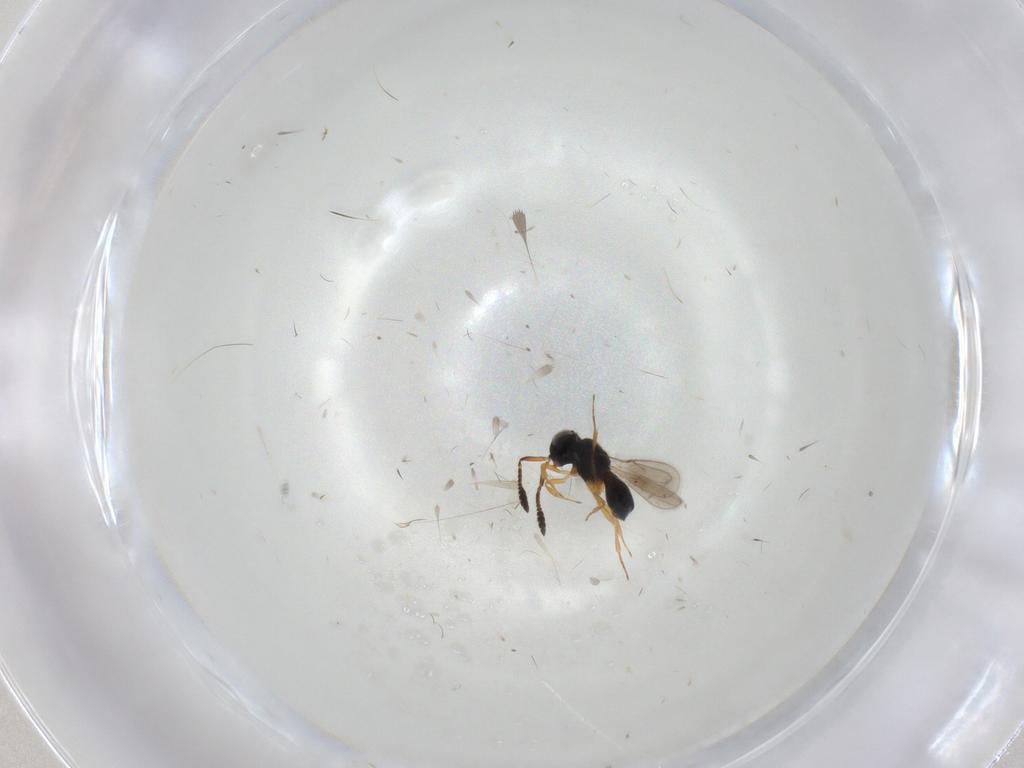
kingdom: Animalia
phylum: Arthropoda
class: Insecta
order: Hymenoptera
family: Scelionidae
